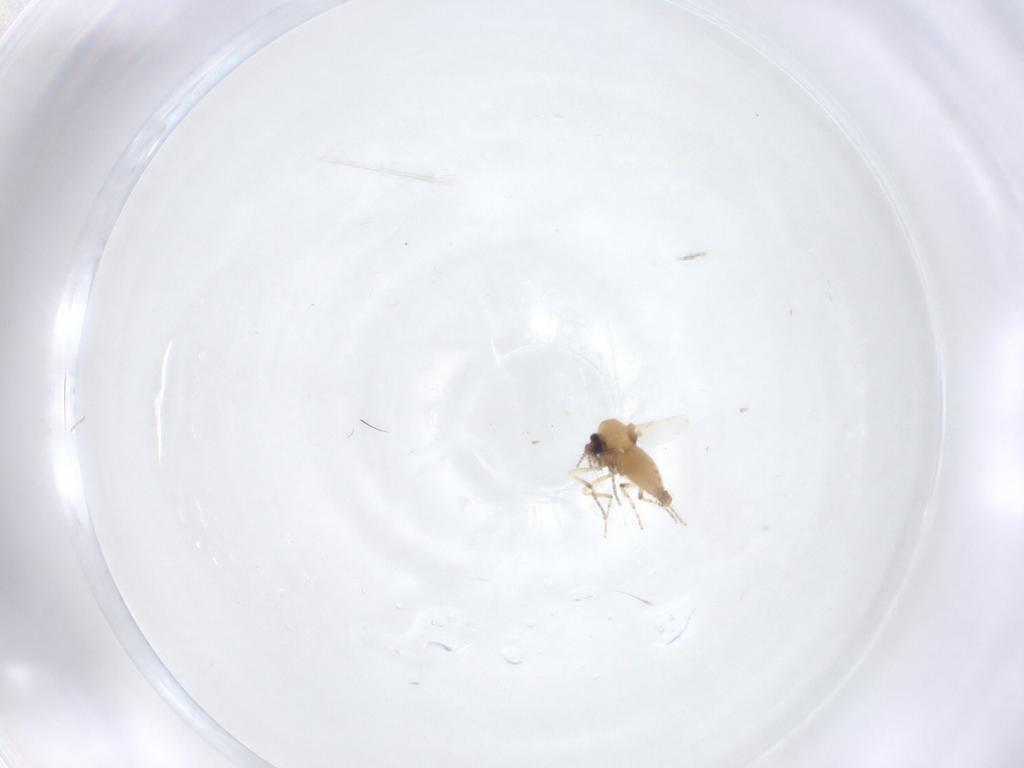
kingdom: Animalia
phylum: Arthropoda
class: Insecta
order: Diptera
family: Ceratopogonidae
